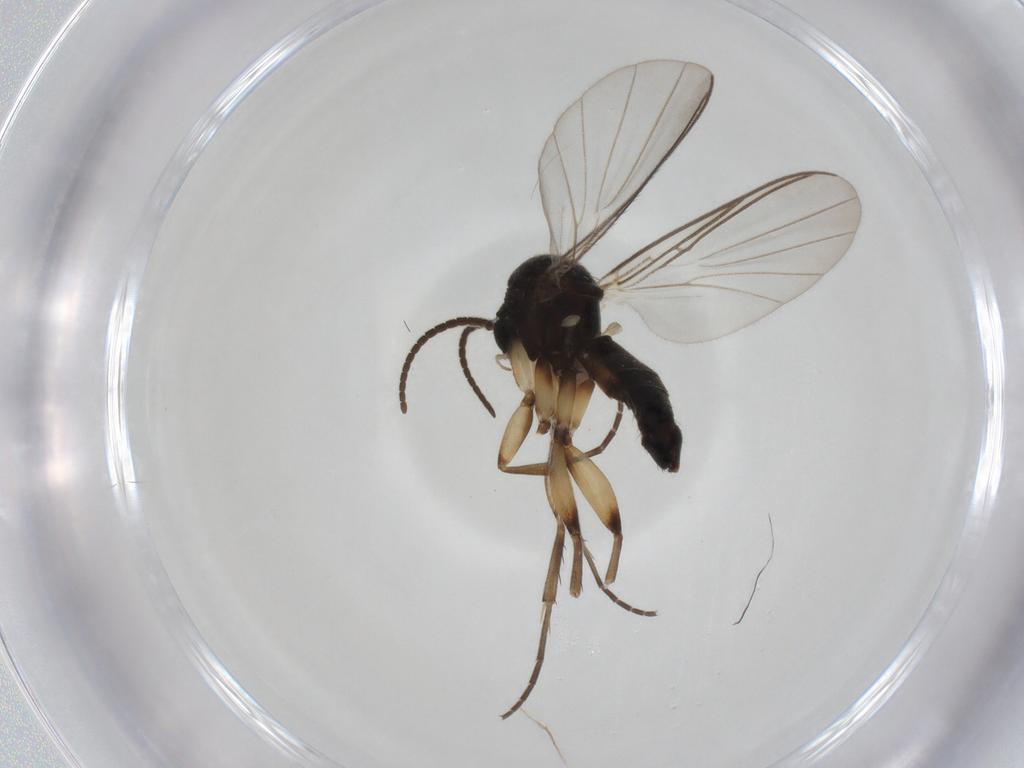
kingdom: Animalia
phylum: Arthropoda
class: Insecta
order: Diptera
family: Mycetophilidae
